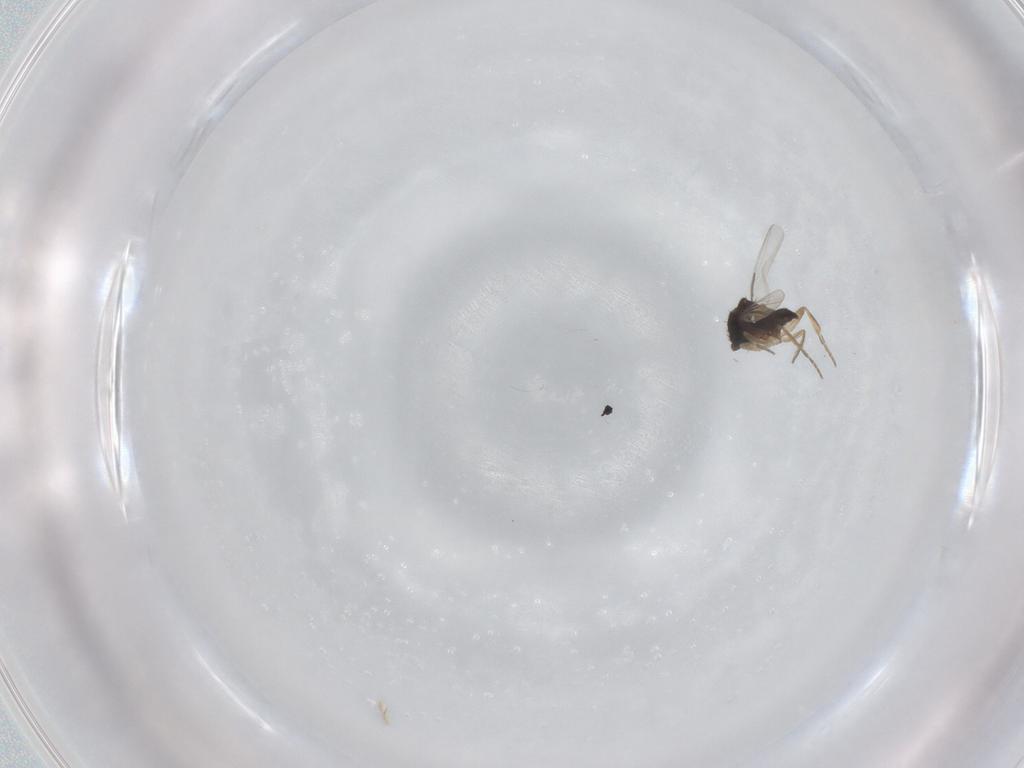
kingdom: Animalia
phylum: Arthropoda
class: Insecta
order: Diptera
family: Phoridae
